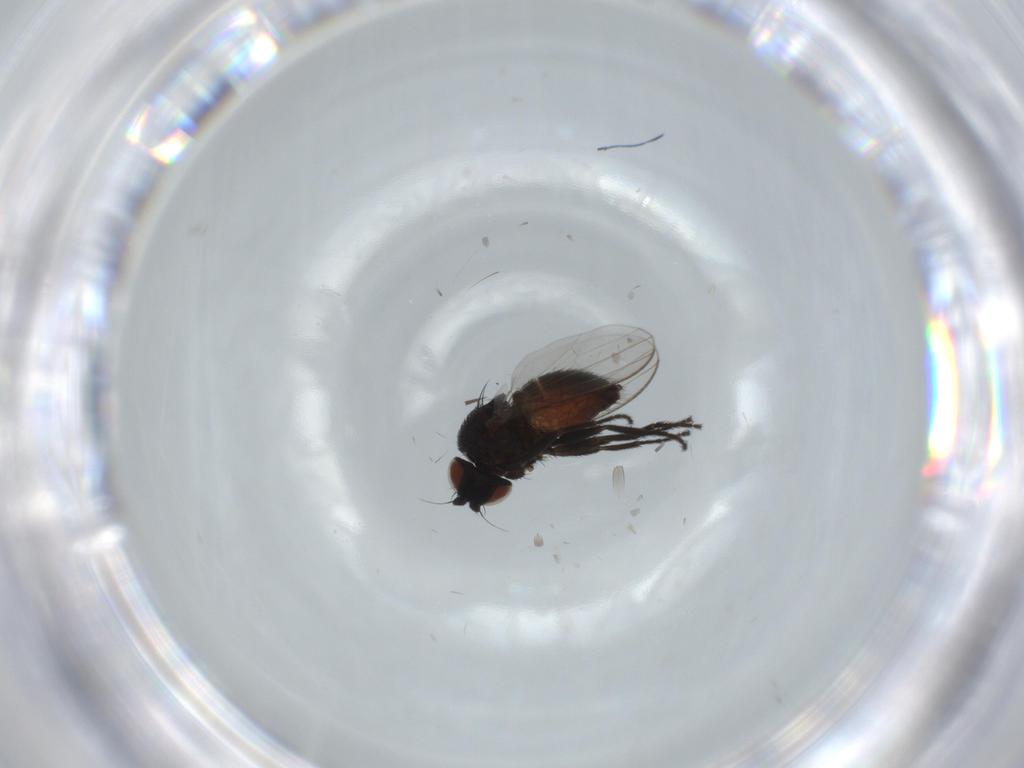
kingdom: Animalia
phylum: Arthropoda
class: Insecta
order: Diptera
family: Milichiidae
